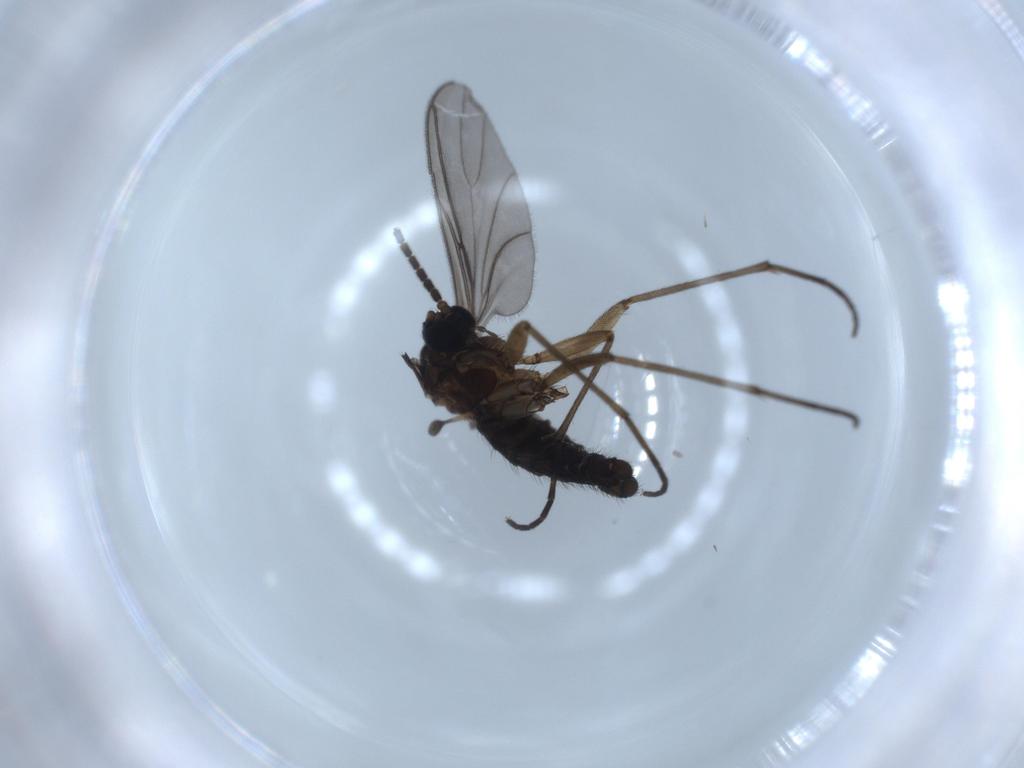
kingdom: Animalia
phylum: Arthropoda
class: Insecta
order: Diptera
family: Sciaridae
